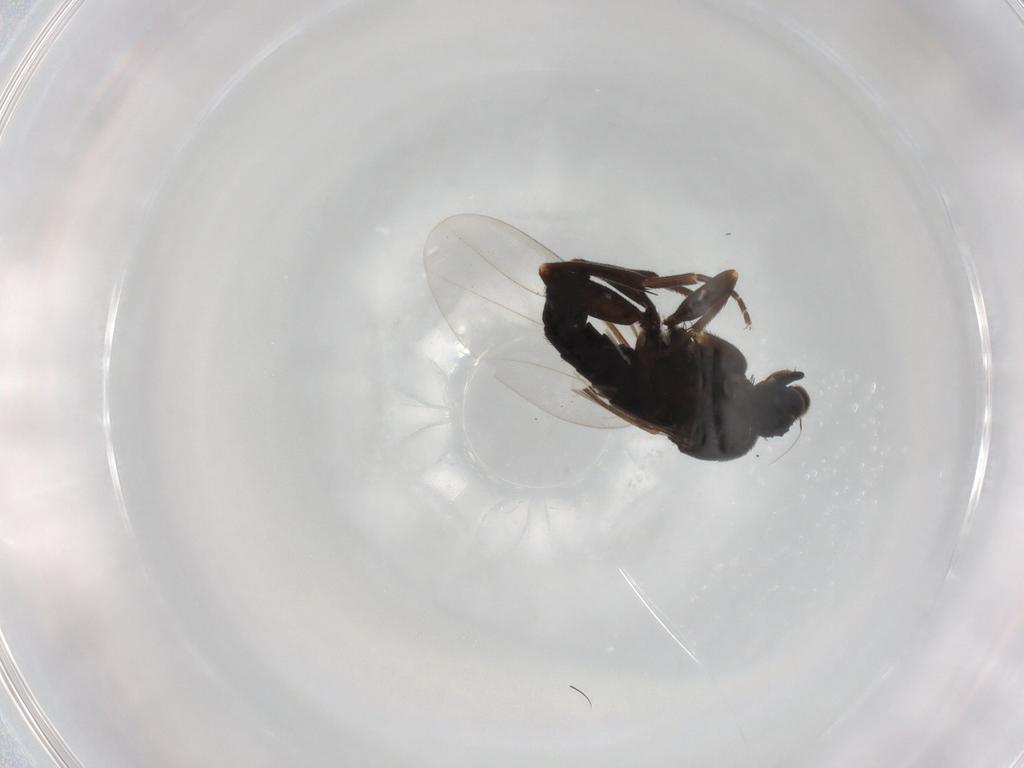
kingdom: Animalia
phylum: Arthropoda
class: Insecta
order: Diptera
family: Phoridae
